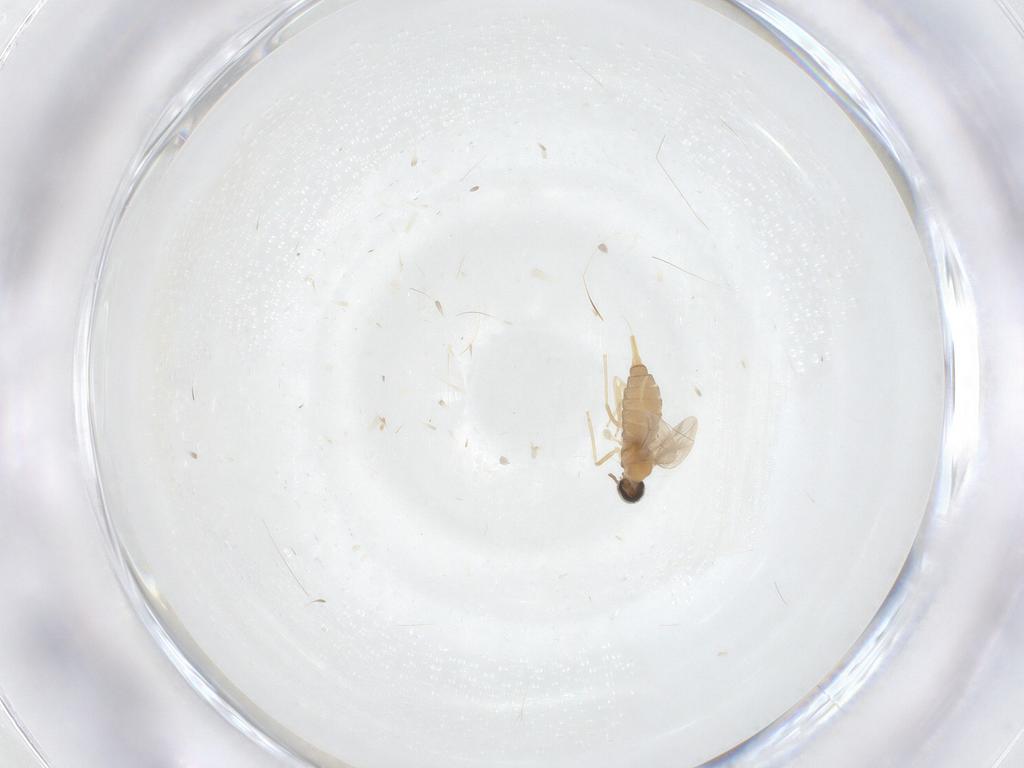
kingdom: Animalia
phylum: Arthropoda
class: Insecta
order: Diptera
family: Cecidomyiidae
